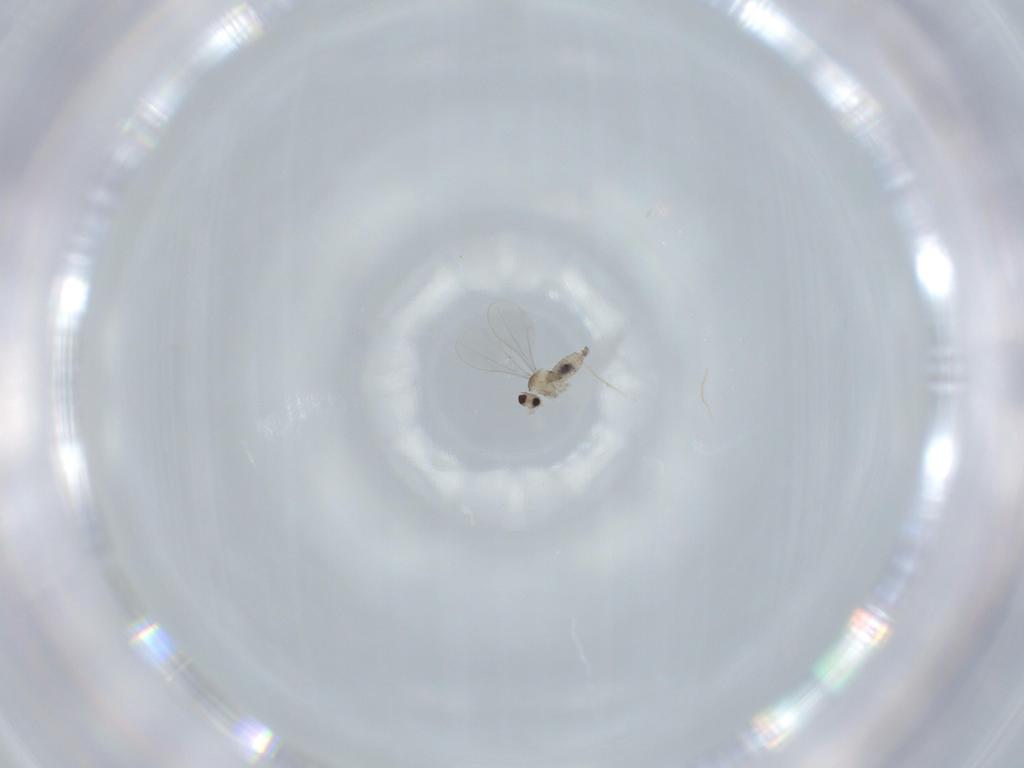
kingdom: Animalia
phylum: Arthropoda
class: Insecta
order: Diptera
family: Cecidomyiidae
